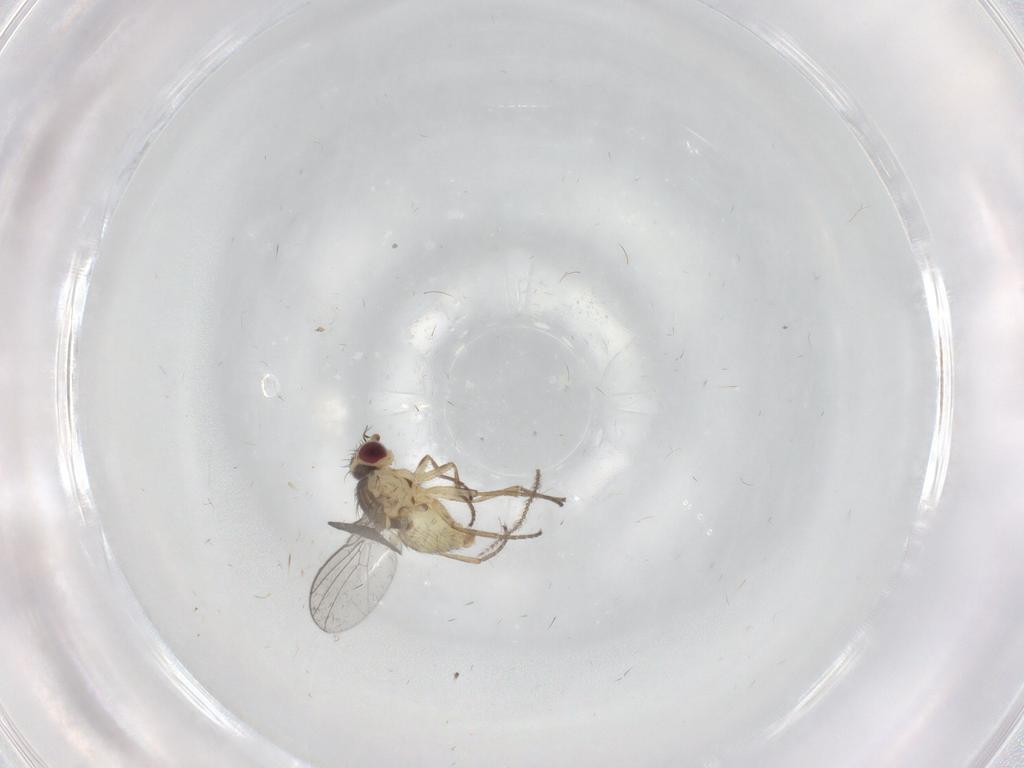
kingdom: Animalia
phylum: Arthropoda
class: Insecta
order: Diptera
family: Agromyzidae
